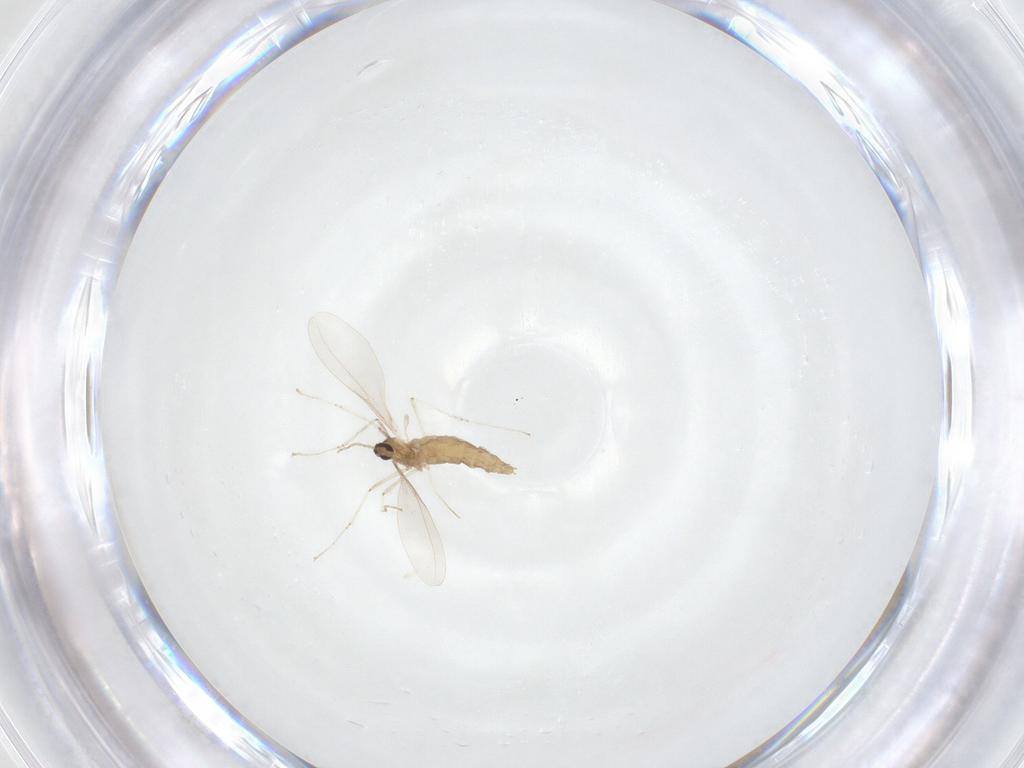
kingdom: Animalia
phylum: Arthropoda
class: Insecta
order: Diptera
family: Cecidomyiidae
